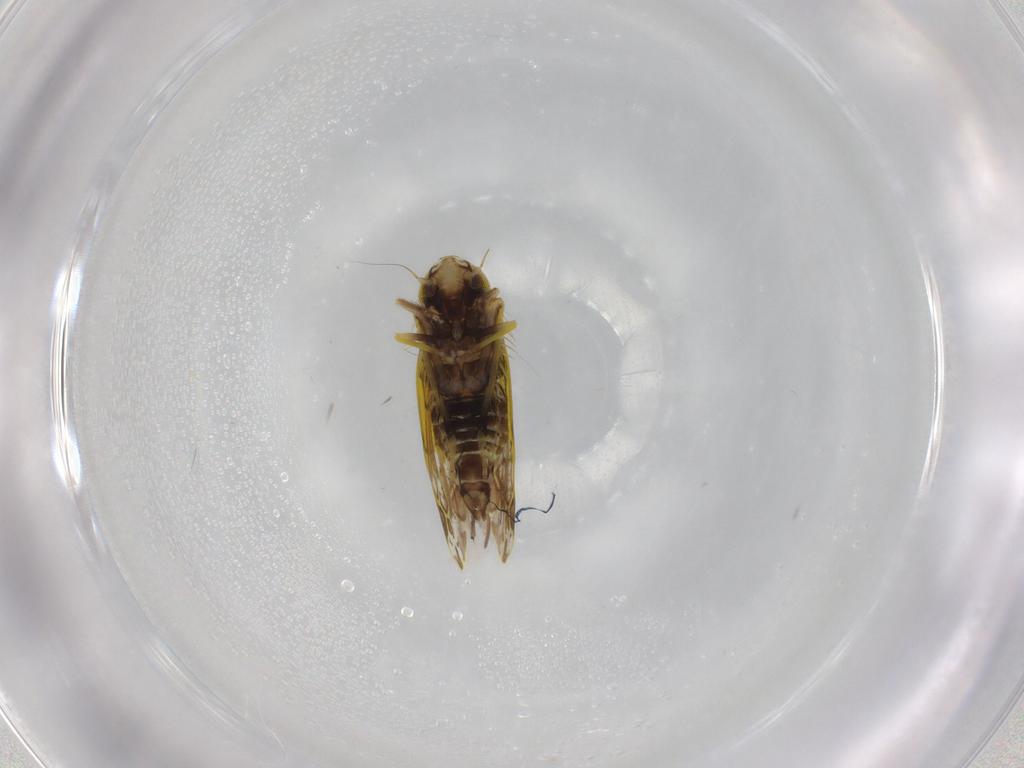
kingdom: Animalia
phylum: Arthropoda
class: Insecta
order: Hemiptera
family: Cicadellidae
